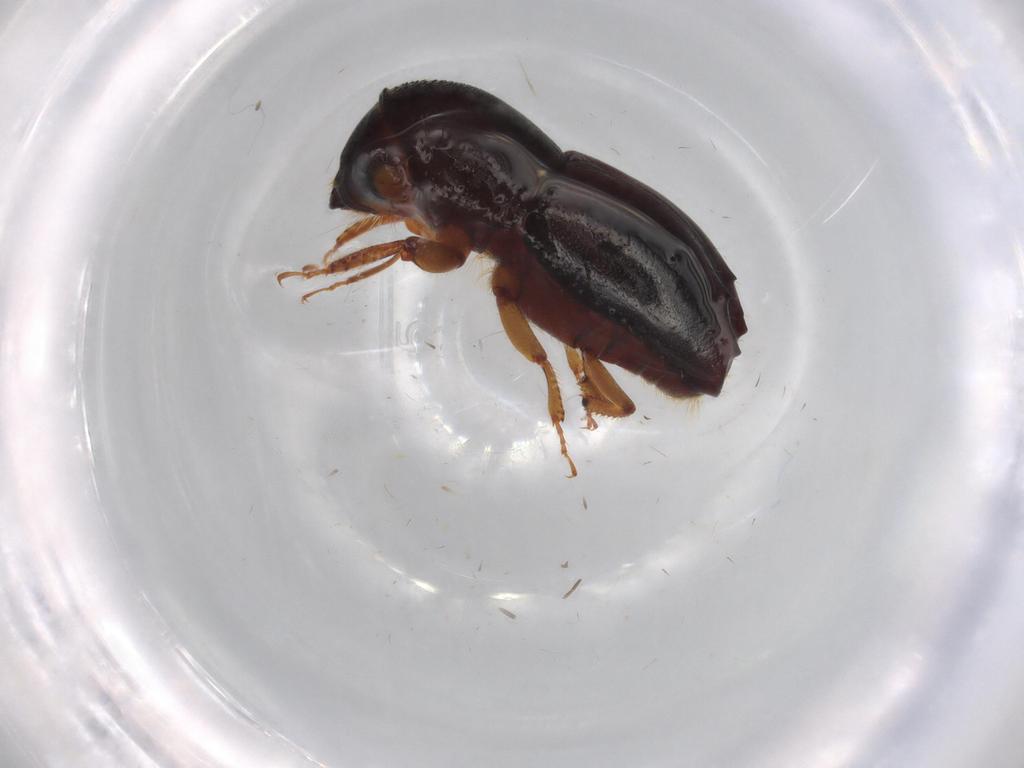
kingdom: Animalia
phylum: Arthropoda
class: Insecta
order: Coleoptera
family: Curculionidae
